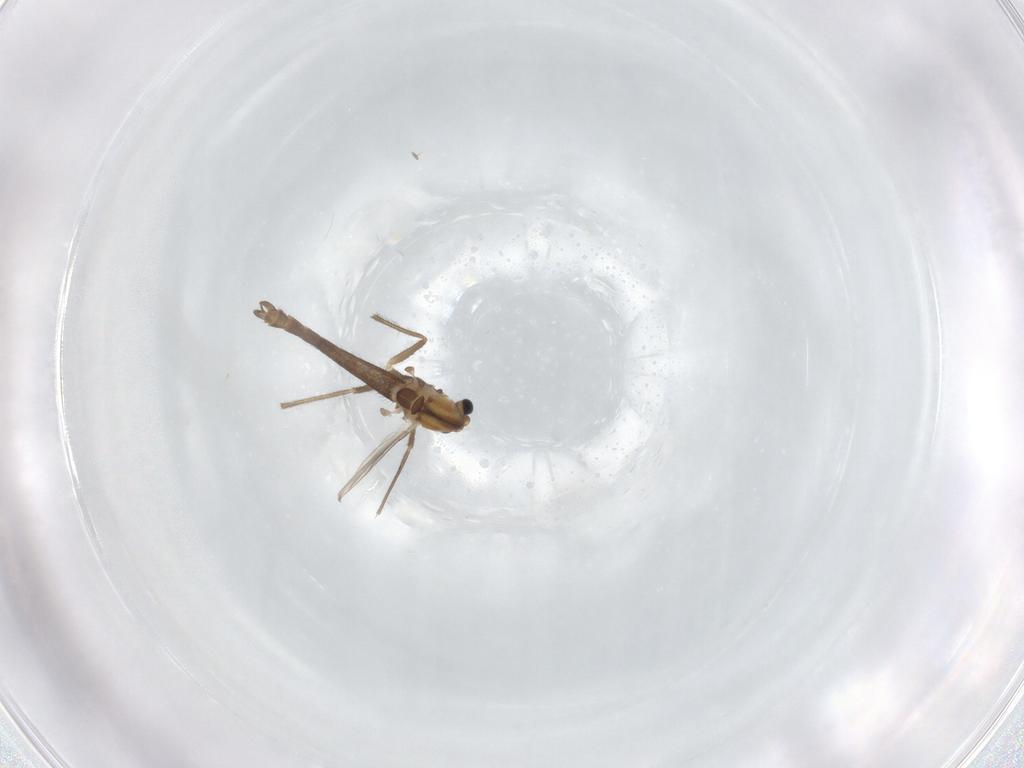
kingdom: Animalia
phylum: Arthropoda
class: Insecta
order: Diptera
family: Chironomidae
